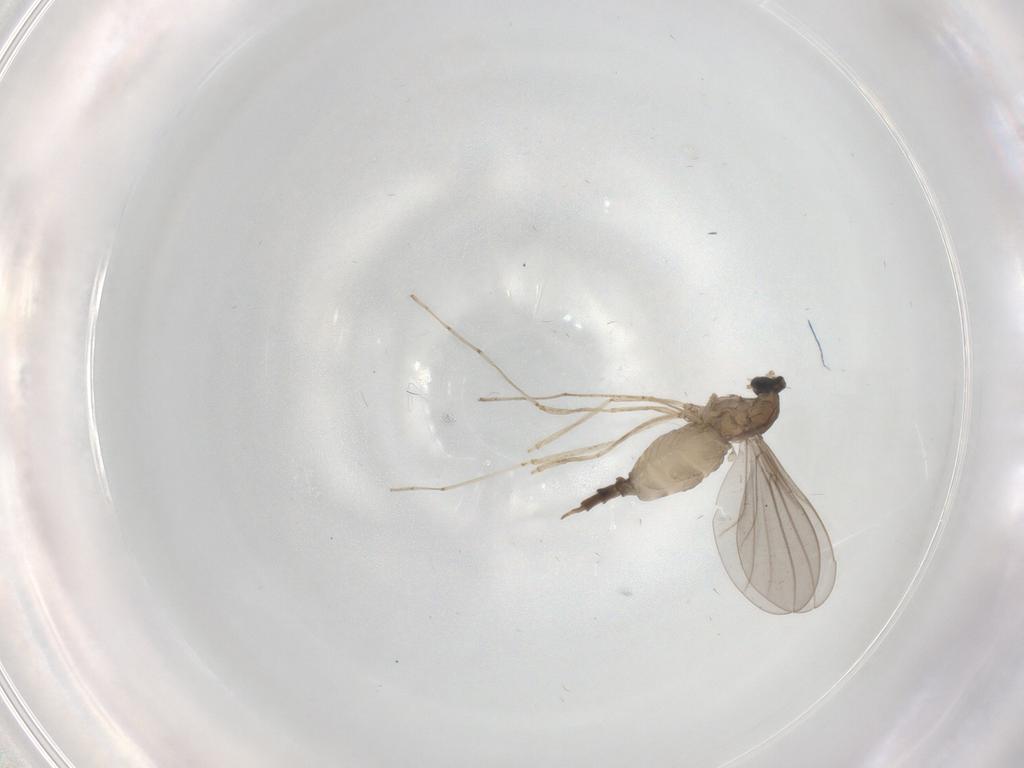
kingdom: Animalia
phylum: Arthropoda
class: Insecta
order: Diptera
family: Cecidomyiidae
